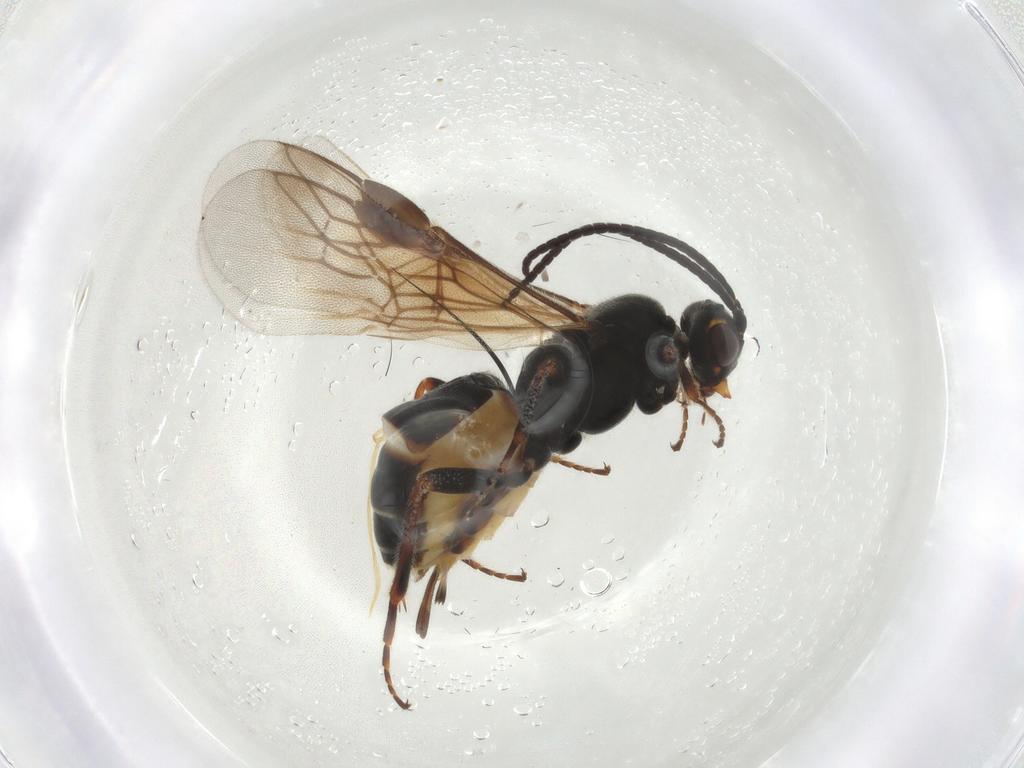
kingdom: Animalia
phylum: Arthropoda
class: Insecta
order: Hymenoptera
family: Braconidae
